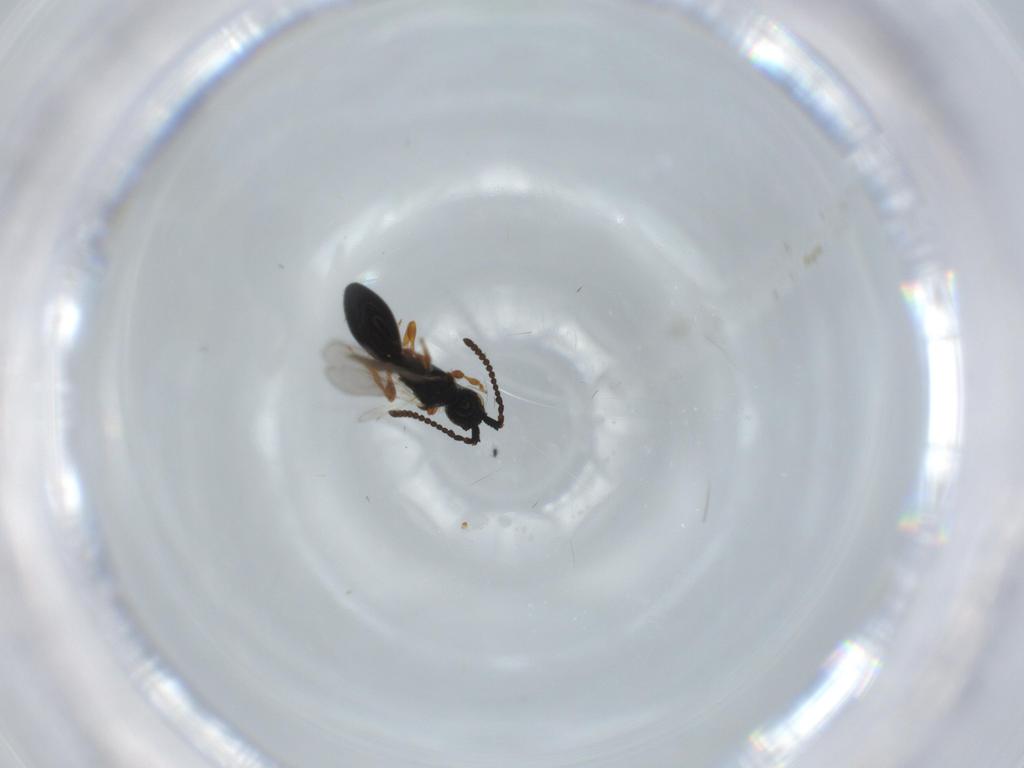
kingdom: Animalia
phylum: Arthropoda
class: Insecta
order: Hymenoptera
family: Diapriidae
